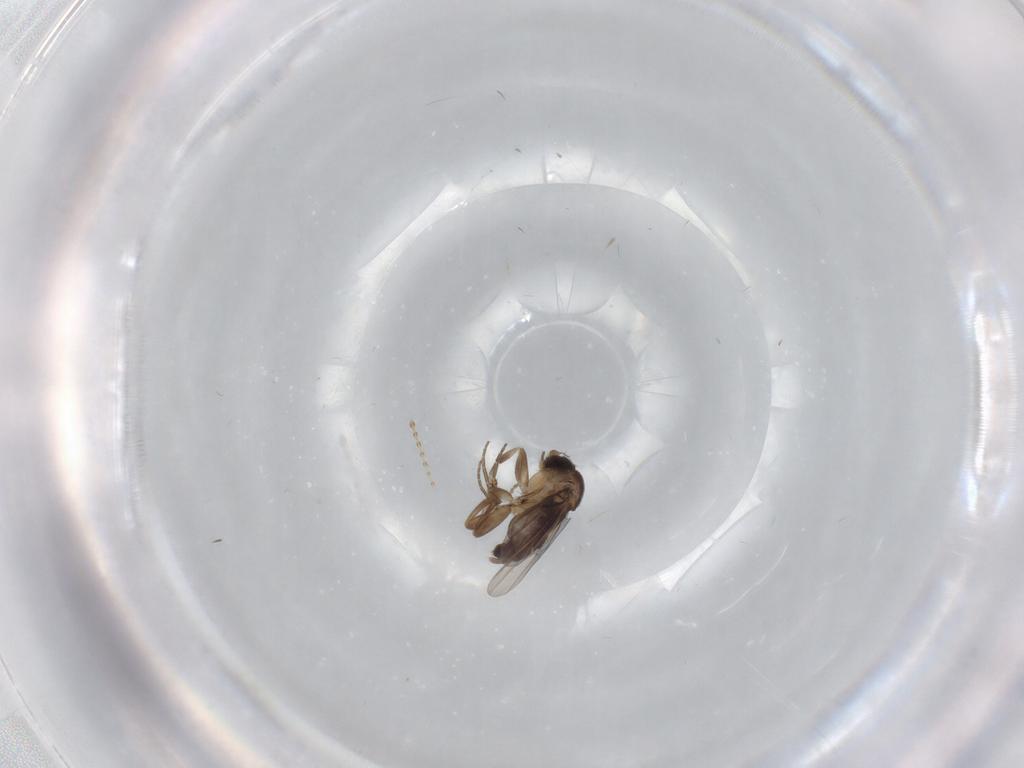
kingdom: Animalia
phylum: Arthropoda
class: Insecta
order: Diptera
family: Phoridae
